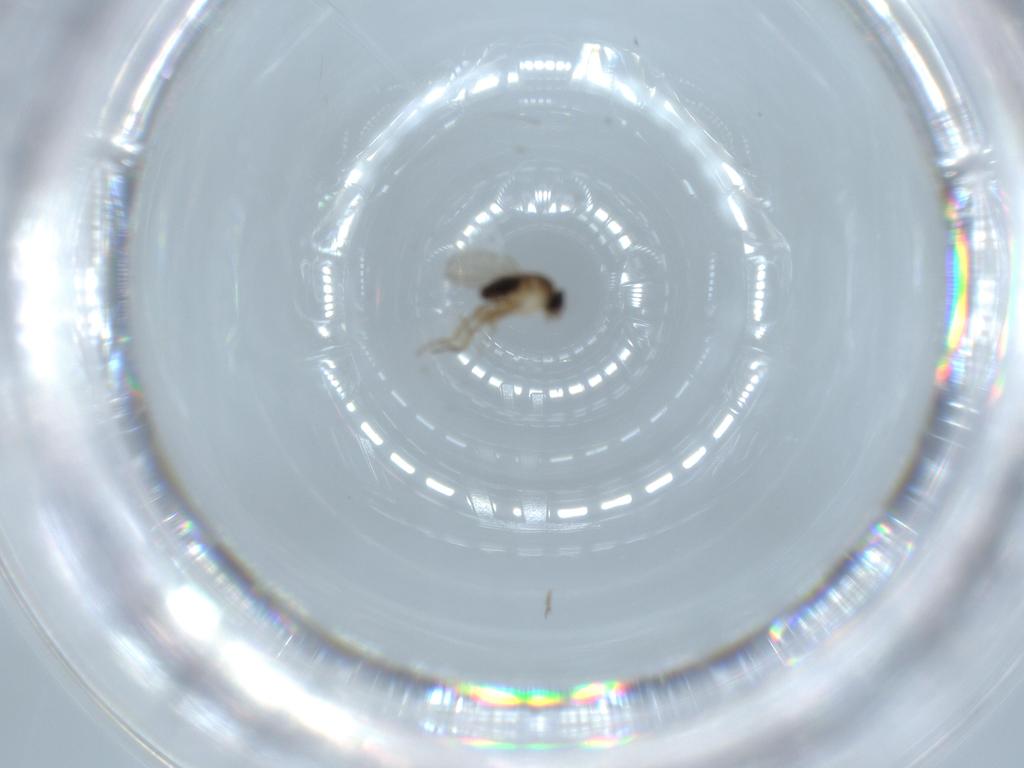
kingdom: Animalia
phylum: Arthropoda
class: Insecta
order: Diptera
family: Phoridae
